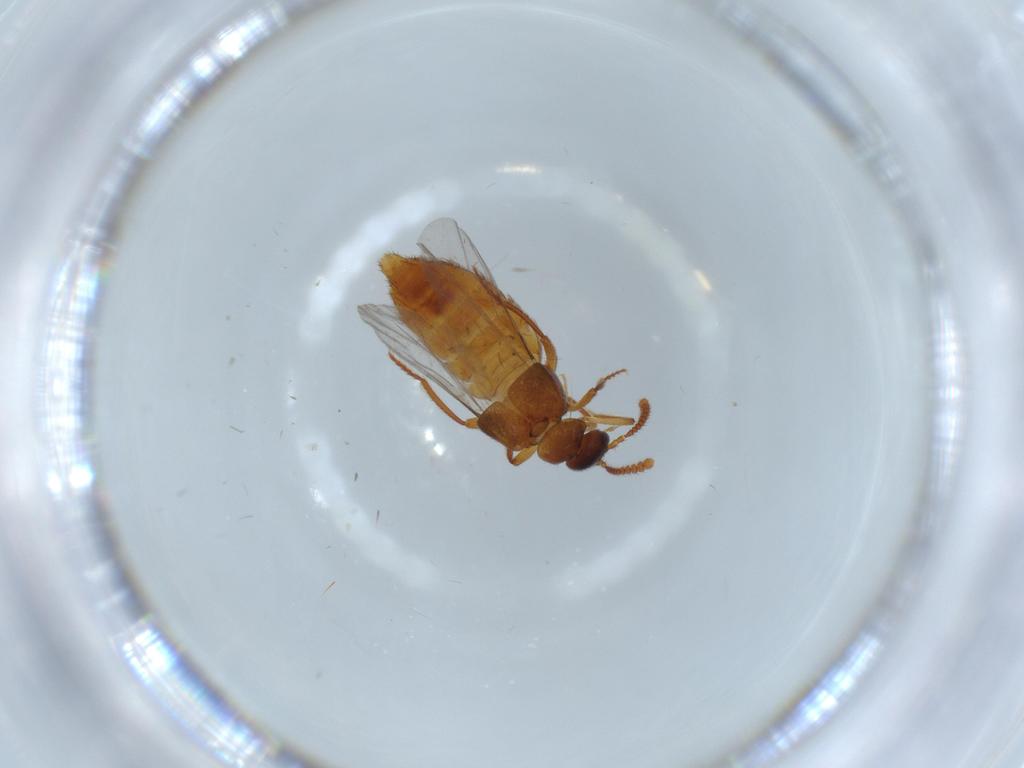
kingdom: Animalia
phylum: Arthropoda
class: Insecta
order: Coleoptera
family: Staphylinidae
